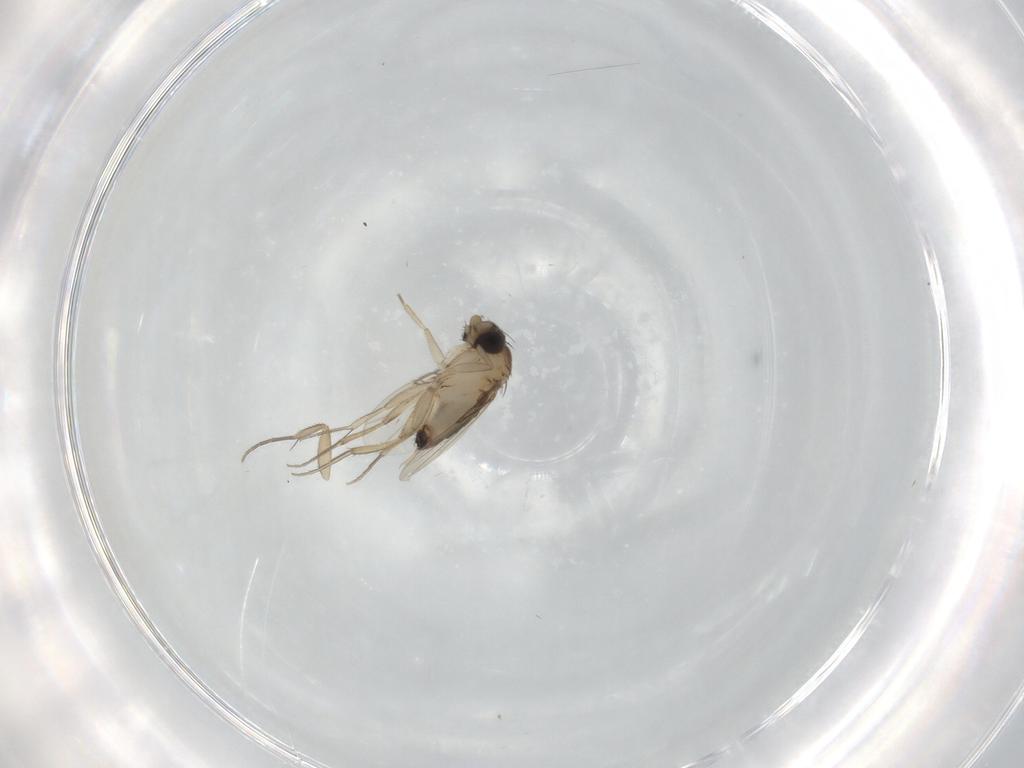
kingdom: Animalia
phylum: Arthropoda
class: Insecta
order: Diptera
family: Phoridae
